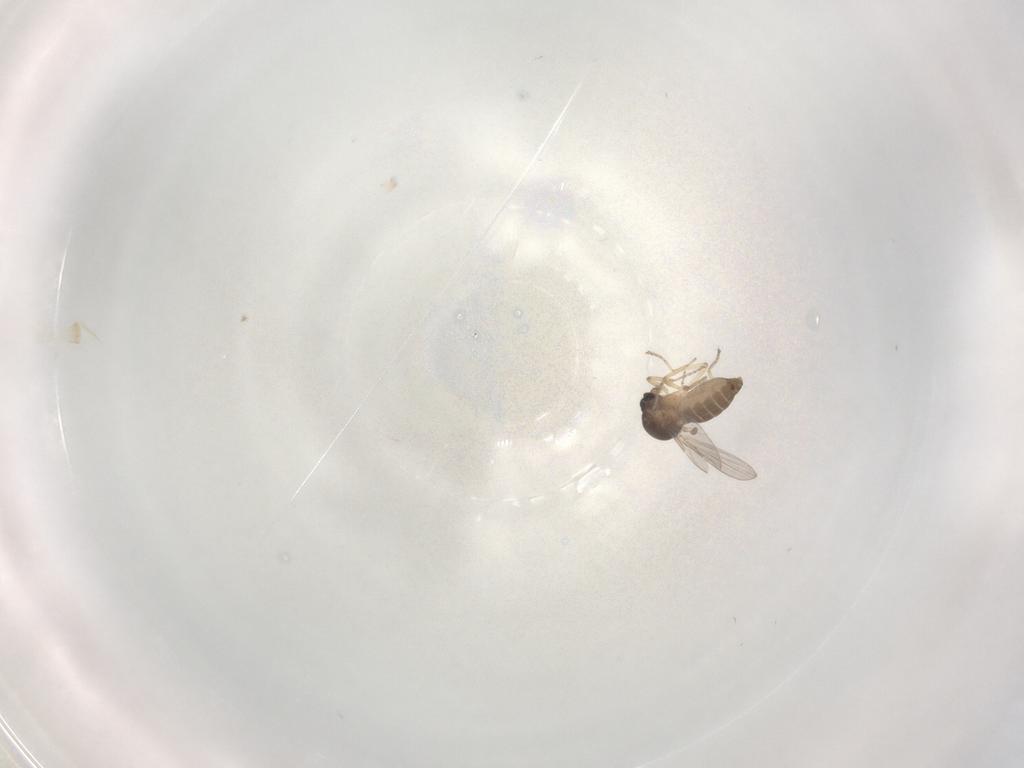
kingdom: Animalia
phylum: Arthropoda
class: Insecta
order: Diptera
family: Ceratopogonidae
